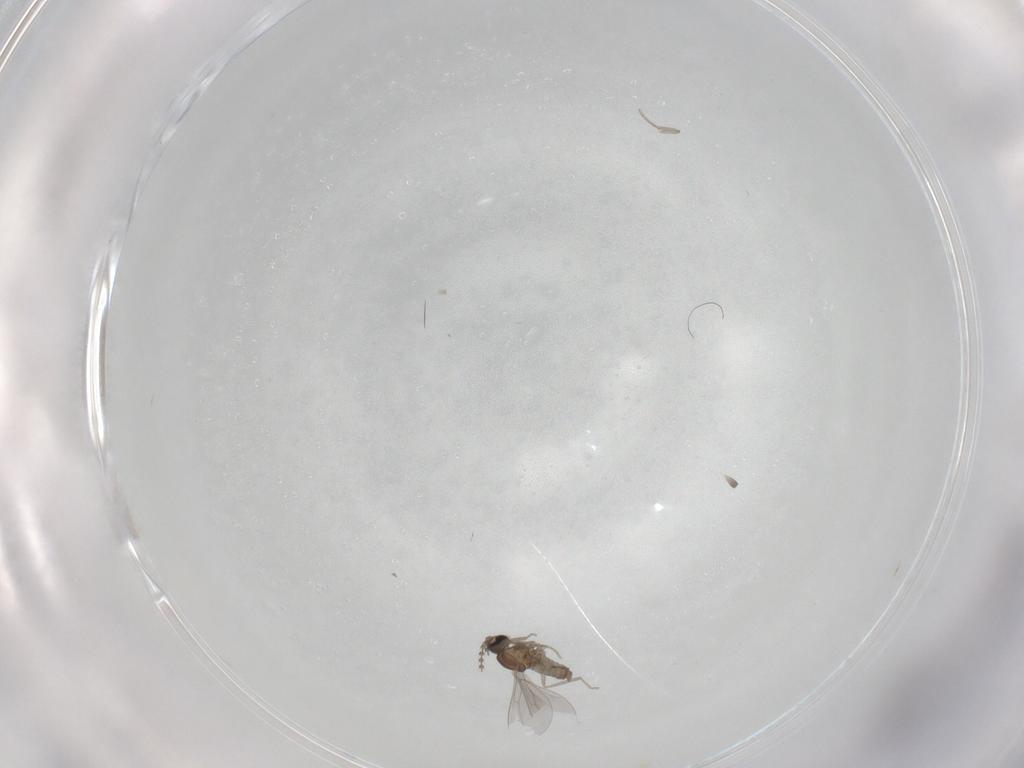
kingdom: Animalia
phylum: Arthropoda
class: Insecta
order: Diptera
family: Cecidomyiidae
